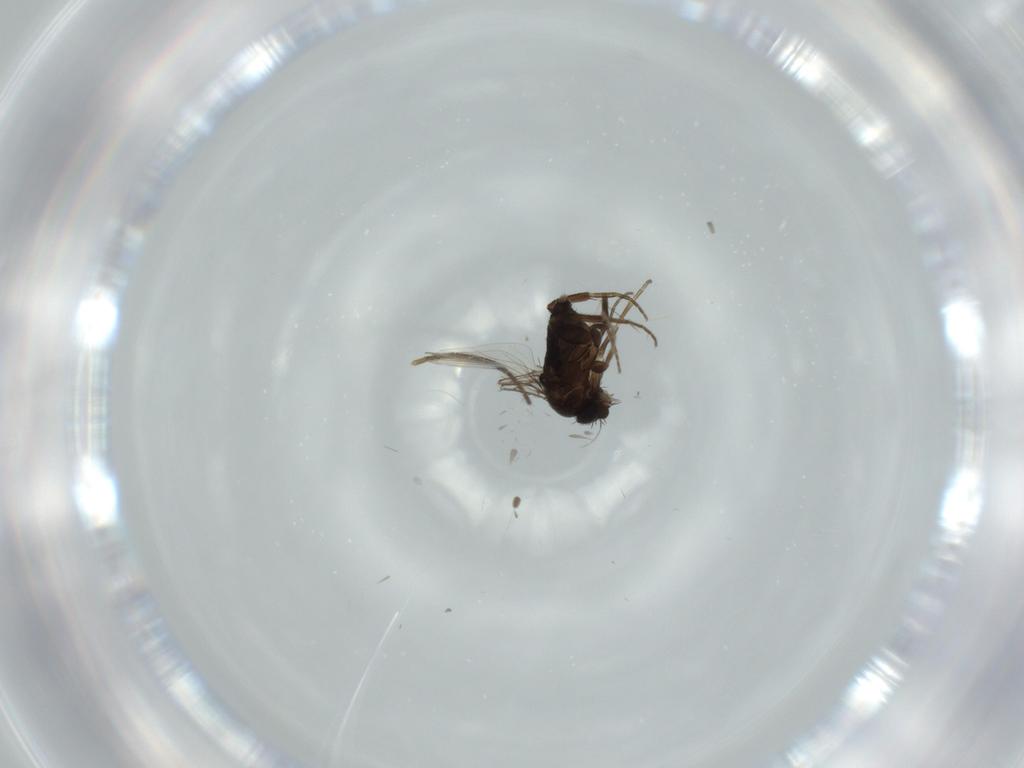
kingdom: Animalia
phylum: Arthropoda
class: Insecta
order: Diptera
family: Phoridae
